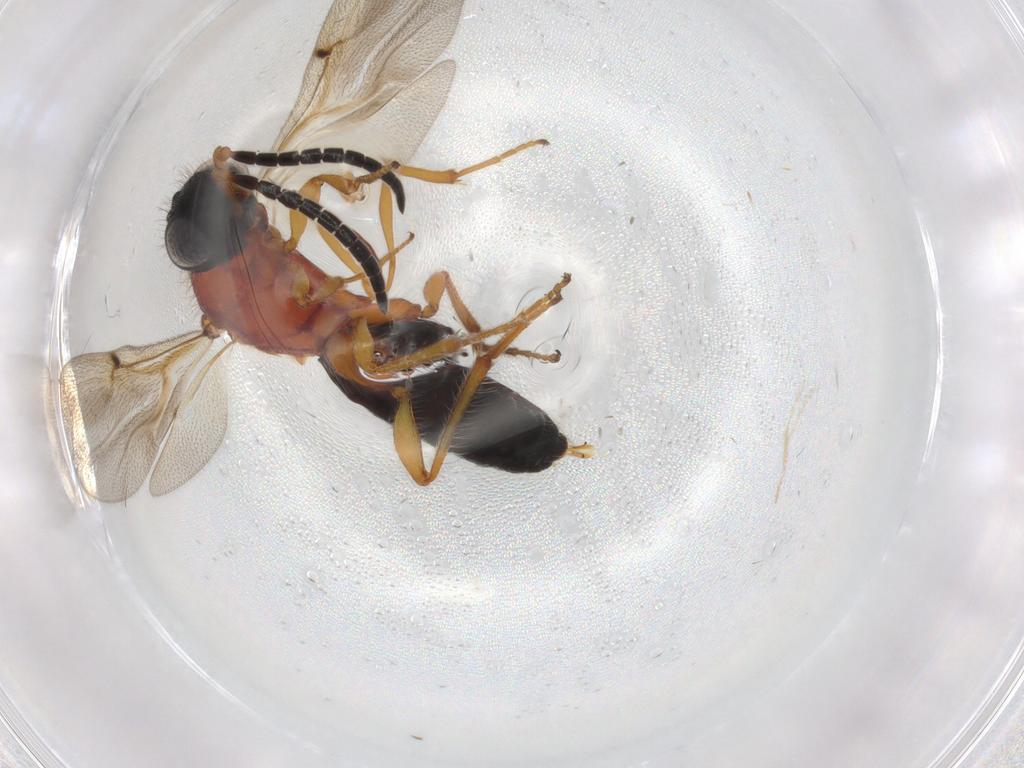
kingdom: Animalia
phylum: Arthropoda
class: Insecta
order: Hymenoptera
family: Scelionidae
